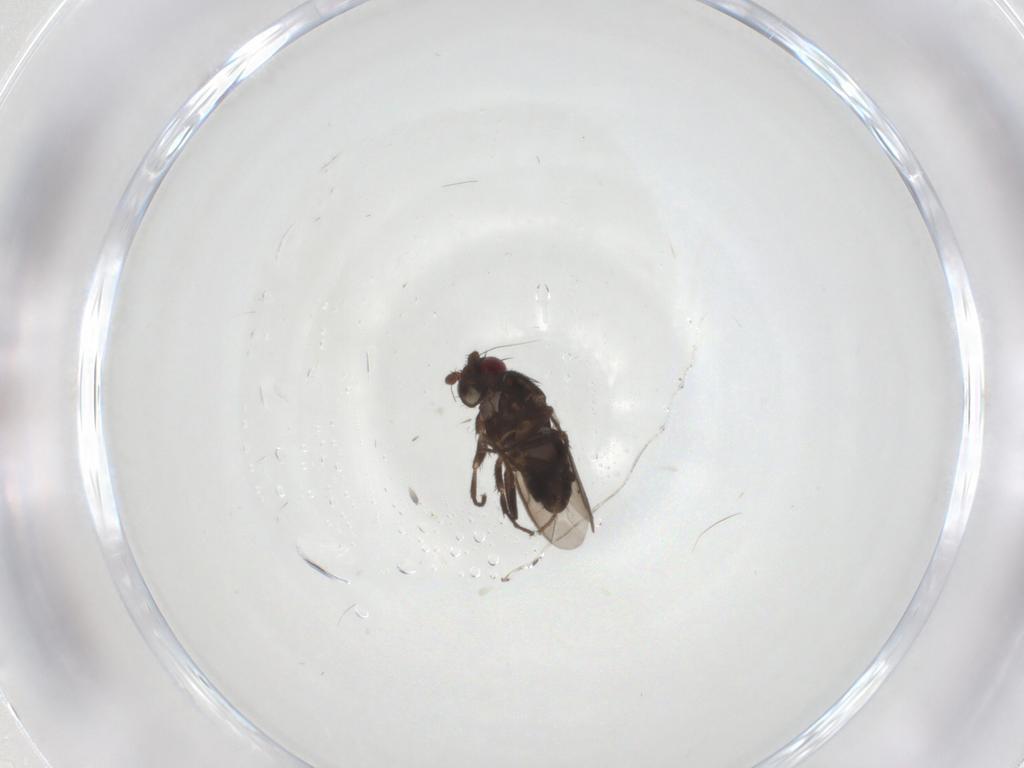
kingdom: Animalia
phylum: Arthropoda
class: Insecta
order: Diptera
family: Sphaeroceridae
